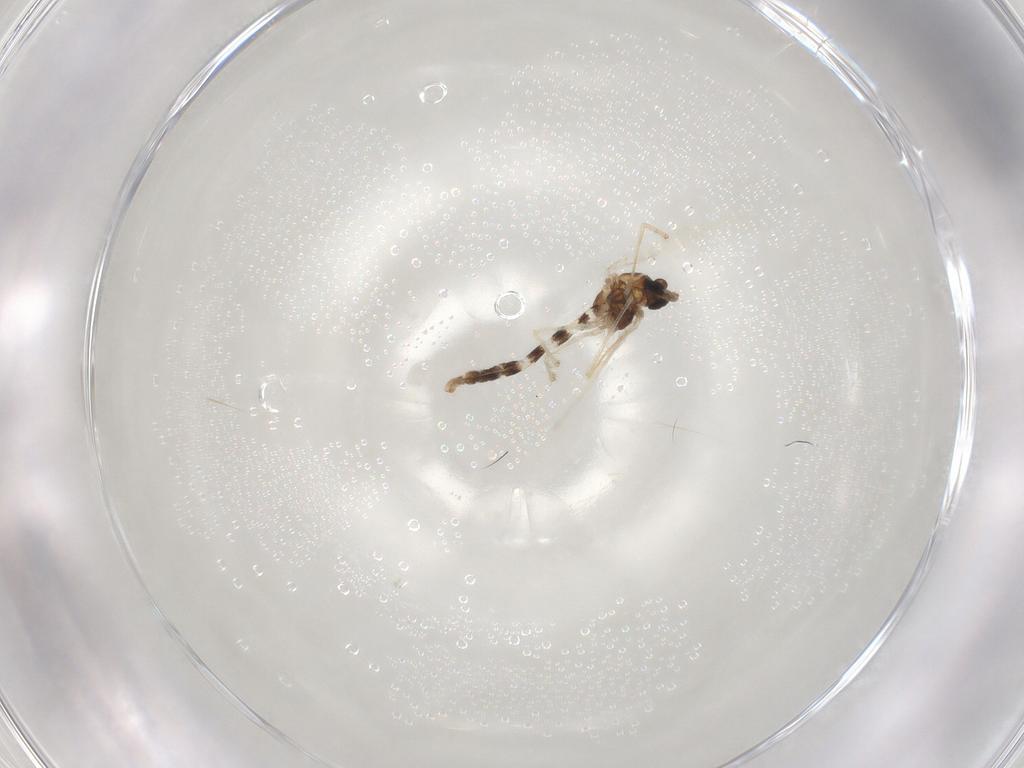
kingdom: Animalia
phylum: Arthropoda
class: Insecta
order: Diptera
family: Chironomidae
